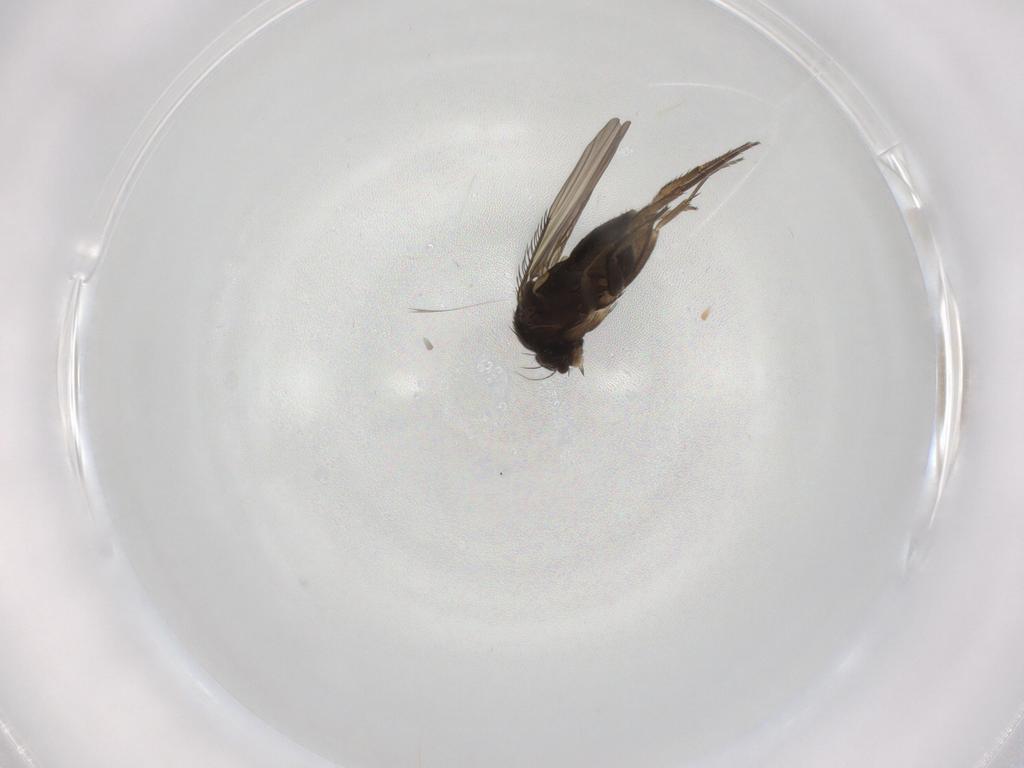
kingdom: Animalia
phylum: Arthropoda
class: Insecta
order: Diptera
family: Phoridae
